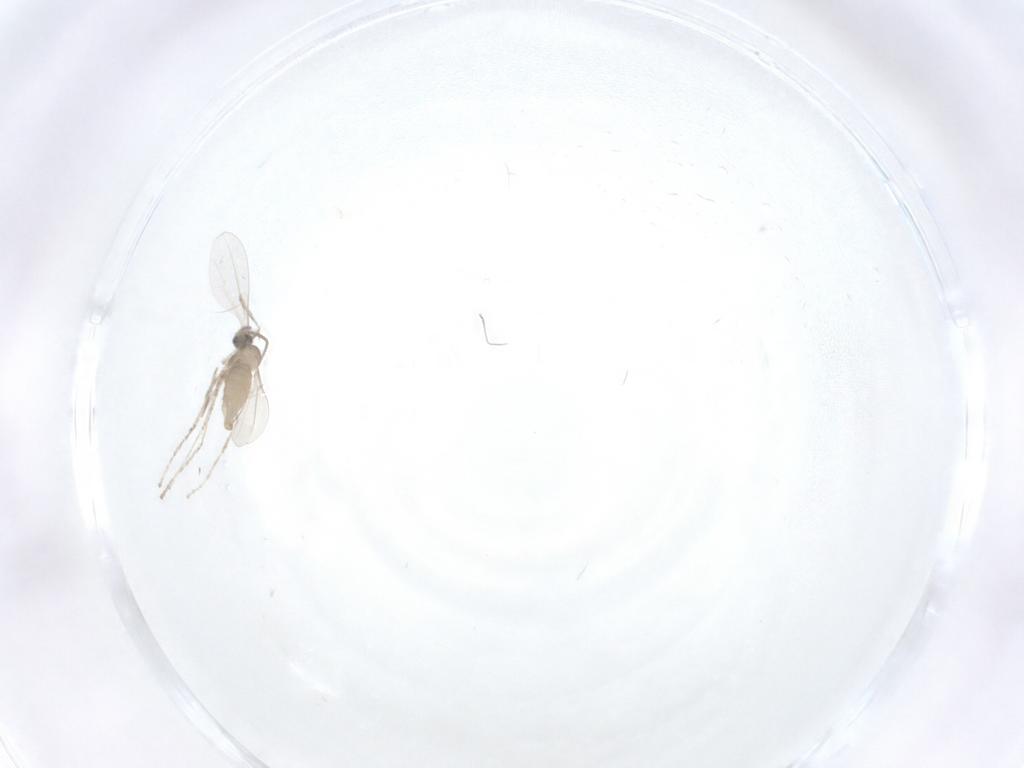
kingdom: Animalia
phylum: Arthropoda
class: Insecta
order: Diptera
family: Cecidomyiidae
